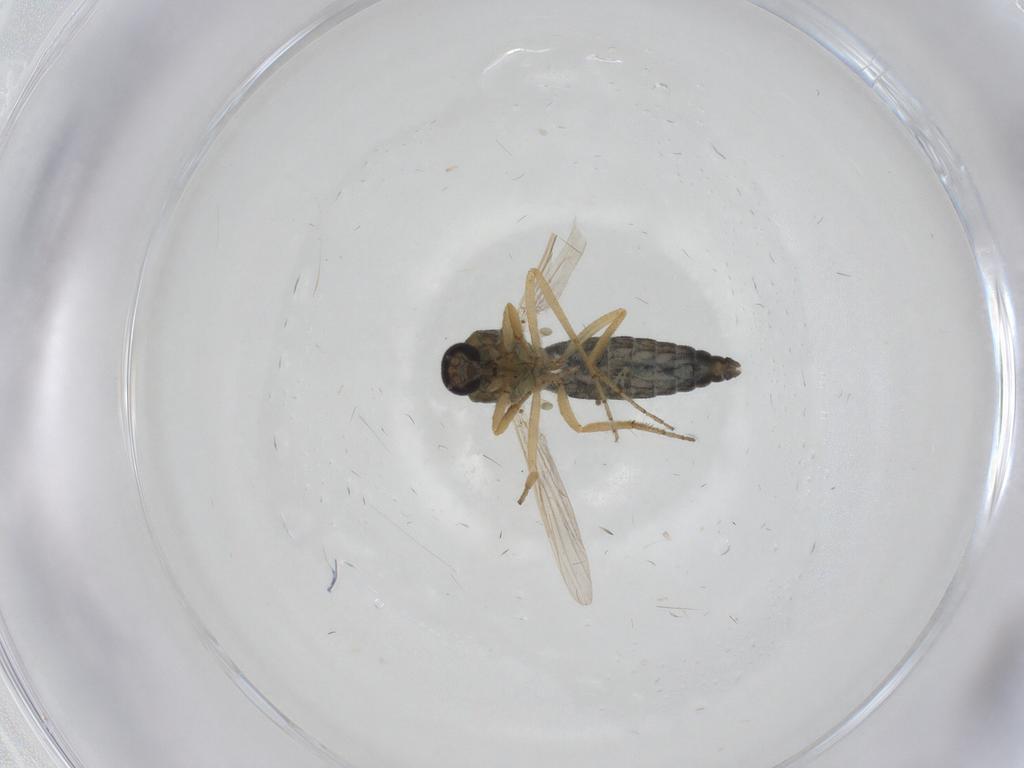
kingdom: Animalia
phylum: Arthropoda
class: Insecta
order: Diptera
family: Ceratopogonidae
